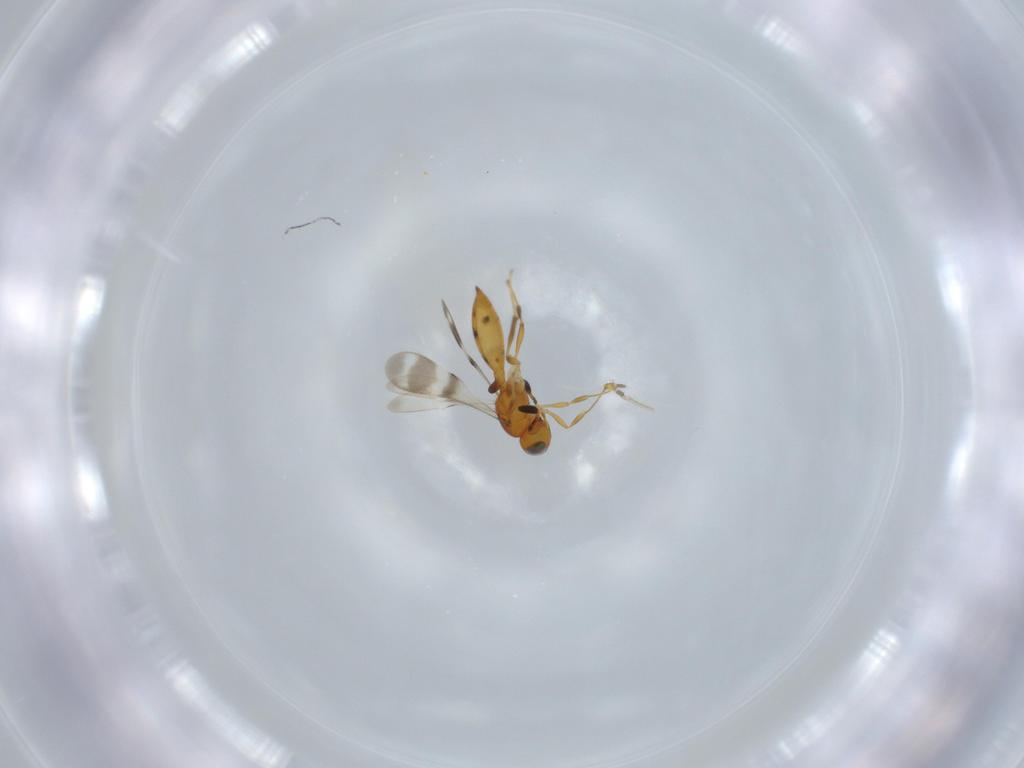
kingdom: Animalia
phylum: Arthropoda
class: Insecta
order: Hymenoptera
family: Scelionidae
